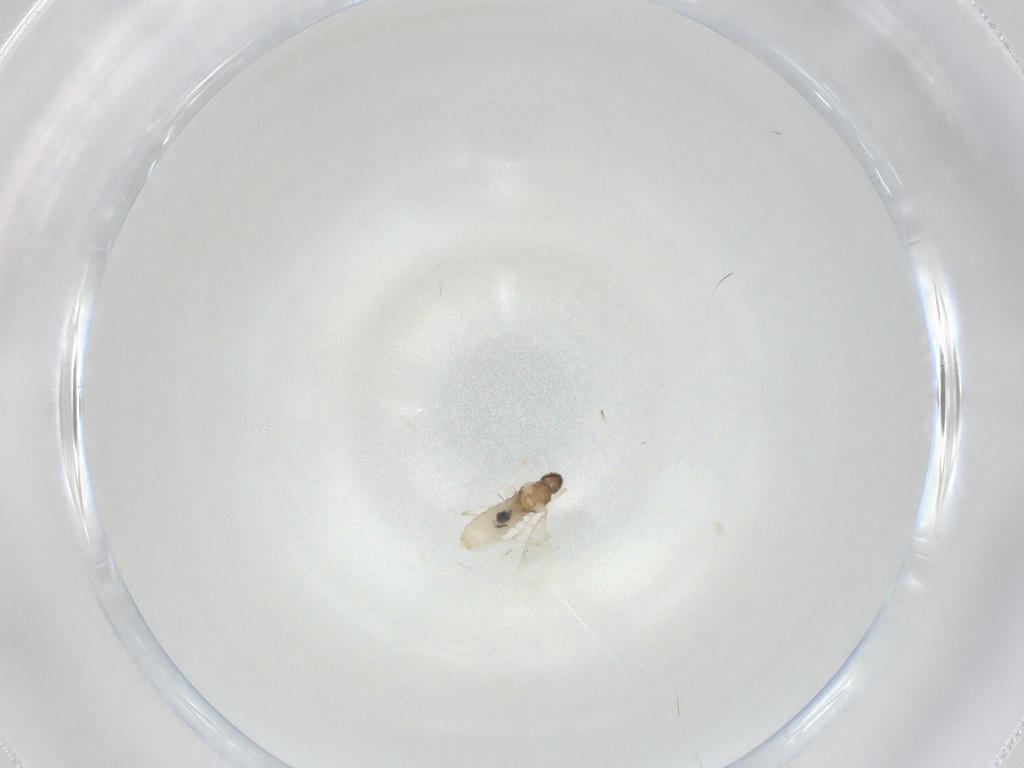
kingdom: Animalia
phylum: Arthropoda
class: Insecta
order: Diptera
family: Cecidomyiidae
